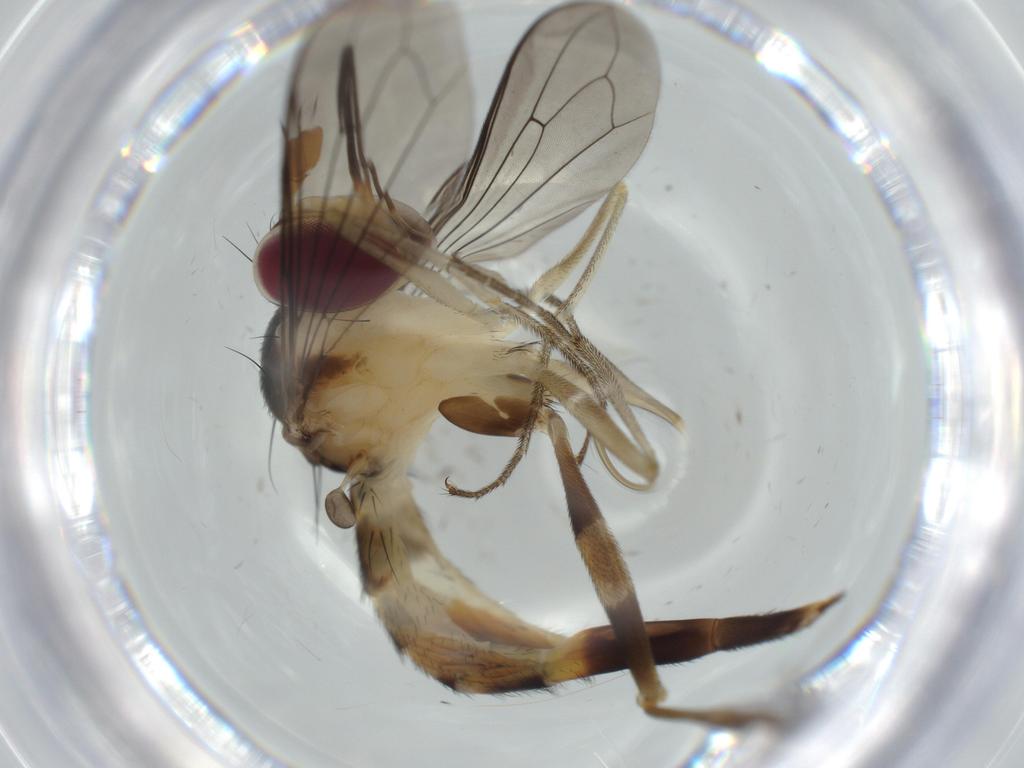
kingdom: Animalia
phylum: Arthropoda
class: Insecta
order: Diptera
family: Conopidae
